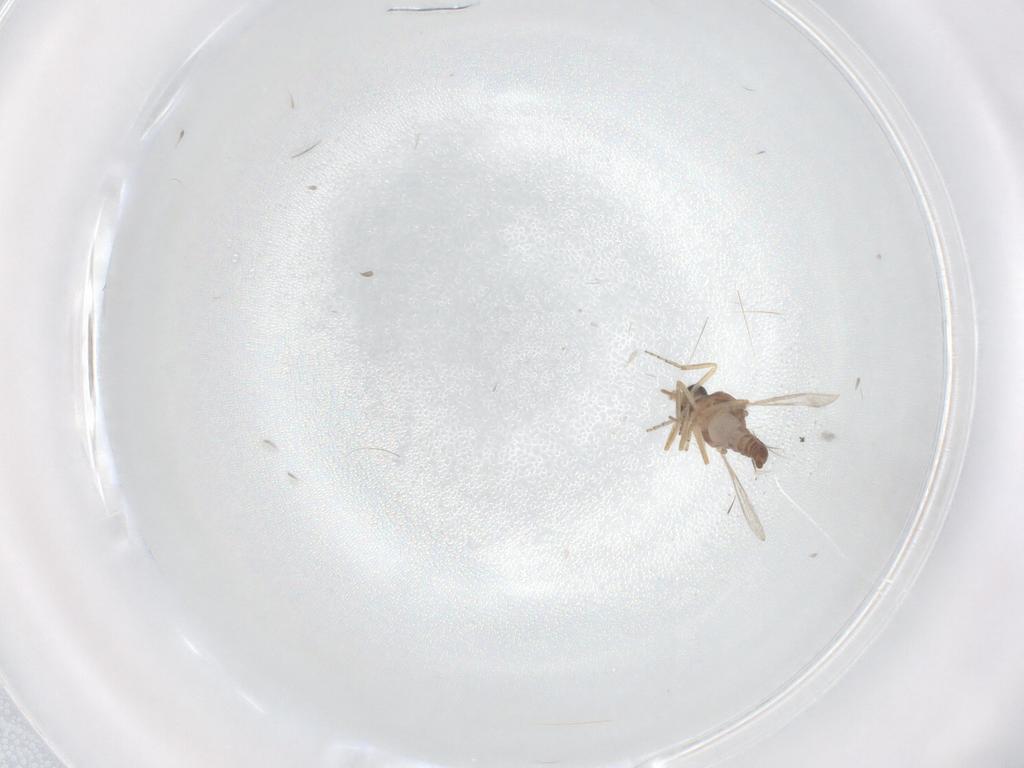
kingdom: Animalia
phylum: Arthropoda
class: Insecta
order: Diptera
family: Ceratopogonidae
